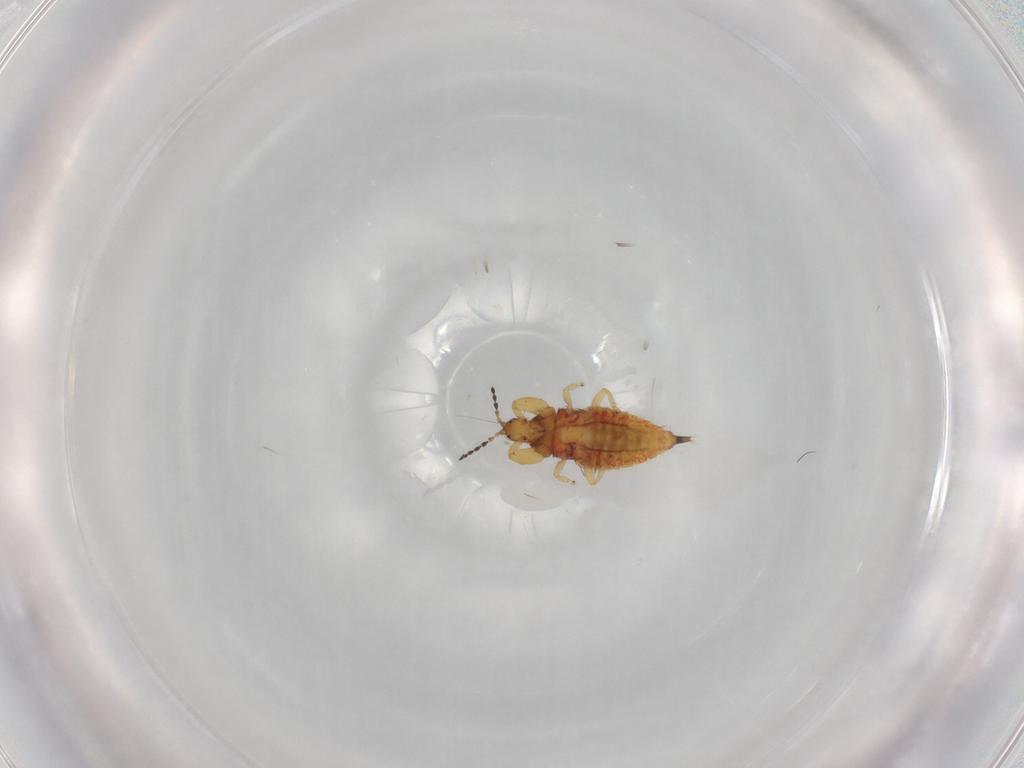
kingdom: Animalia
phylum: Arthropoda
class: Insecta
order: Thysanoptera
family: Phlaeothripidae
